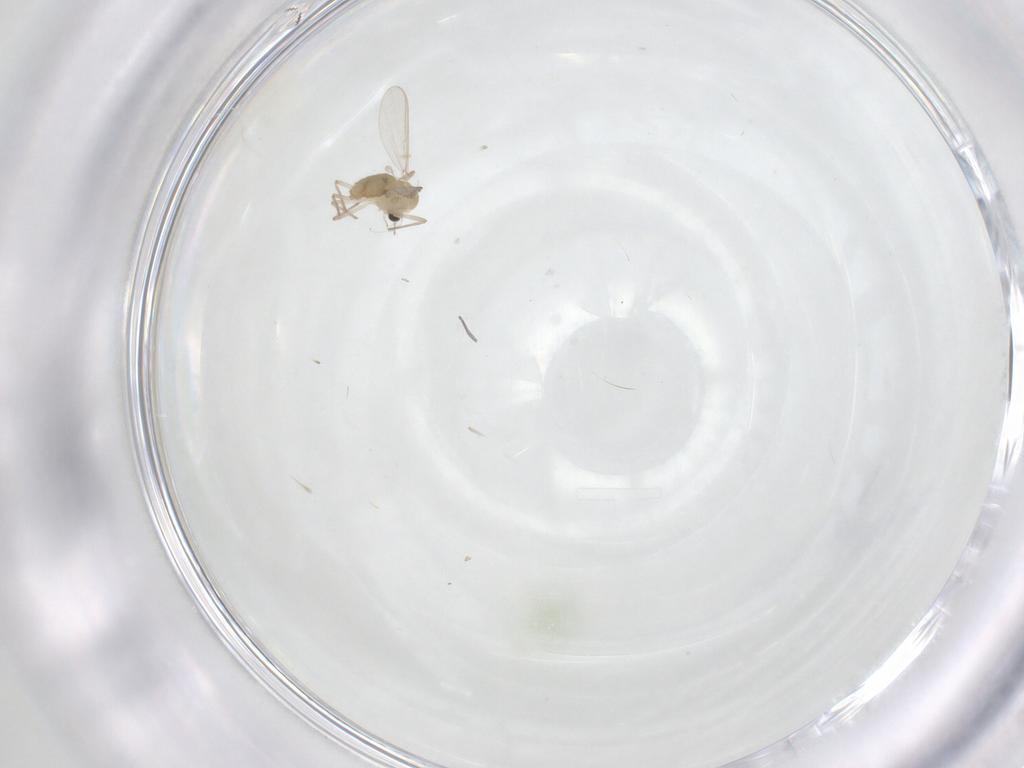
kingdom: Animalia
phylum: Arthropoda
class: Insecta
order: Diptera
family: Chironomidae
